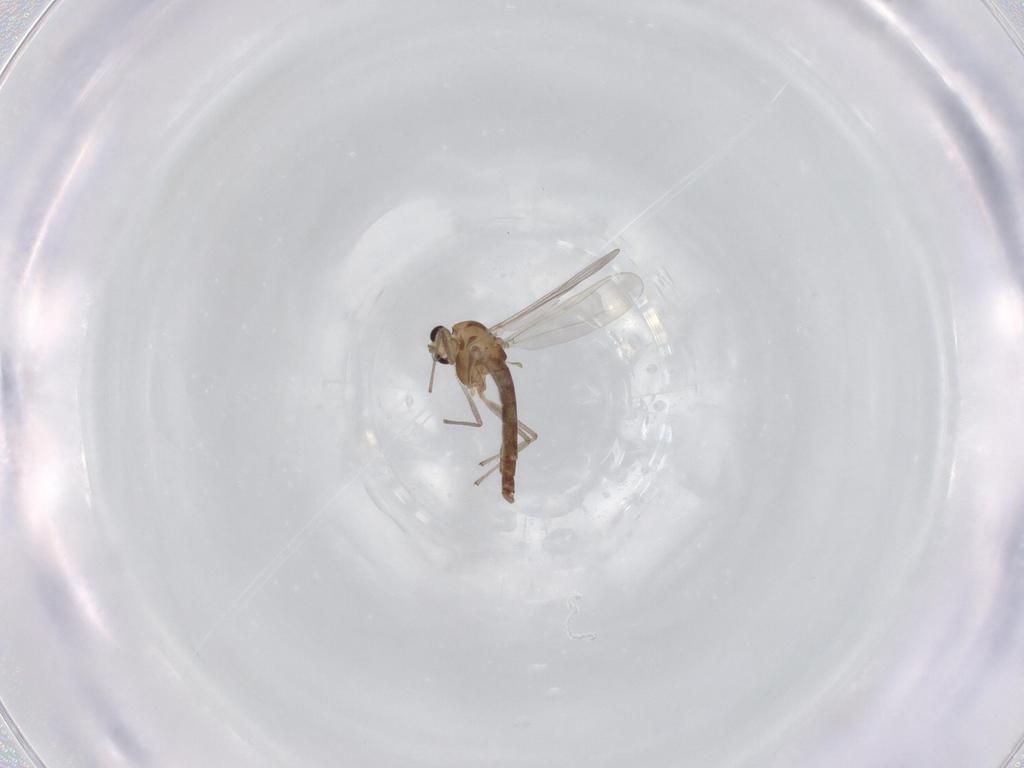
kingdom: Animalia
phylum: Arthropoda
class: Insecta
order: Diptera
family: Chironomidae
